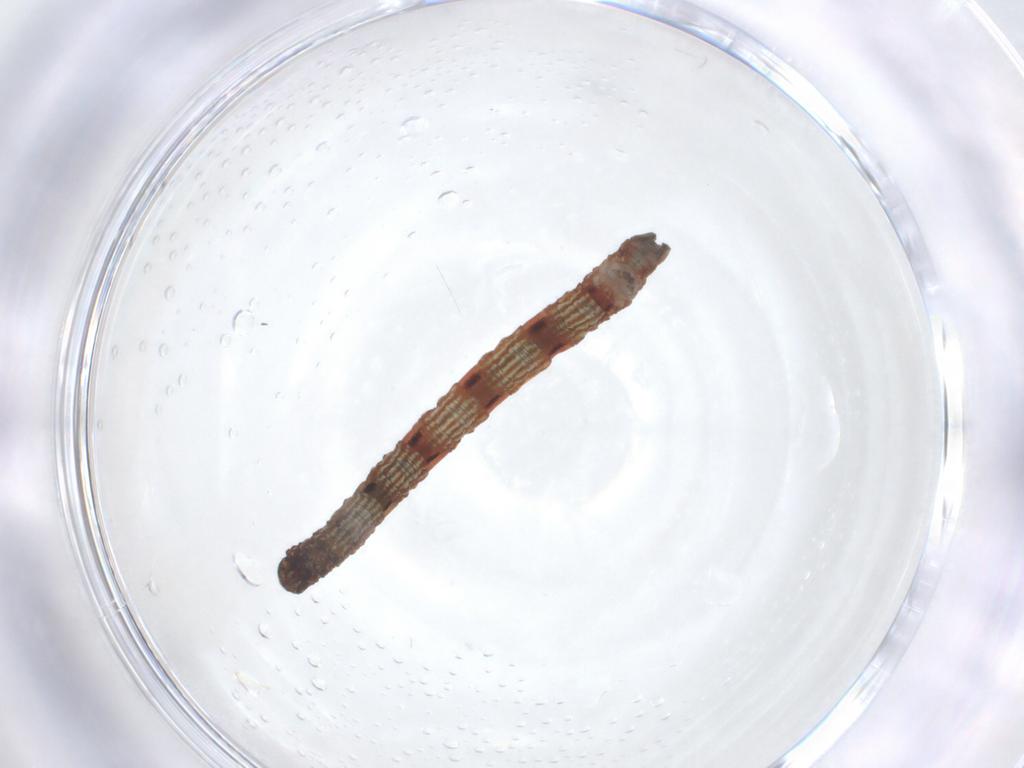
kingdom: Animalia
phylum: Arthropoda
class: Insecta
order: Lepidoptera
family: Geometridae
